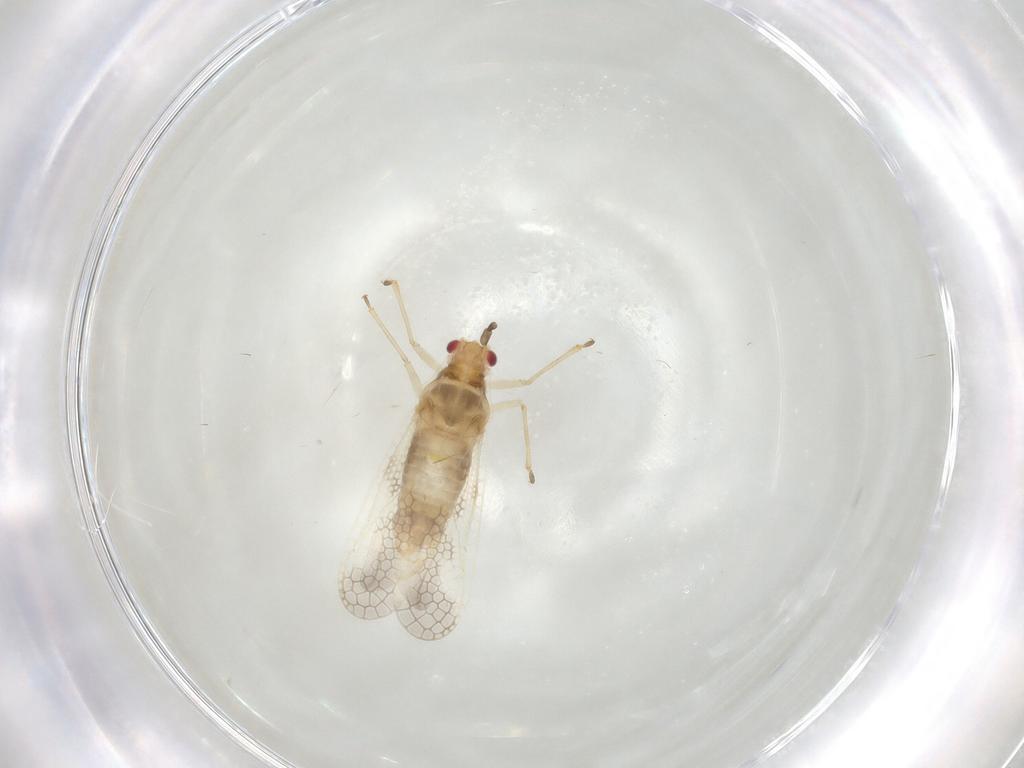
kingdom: Animalia
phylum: Arthropoda
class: Insecta
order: Hemiptera
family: Tingidae
